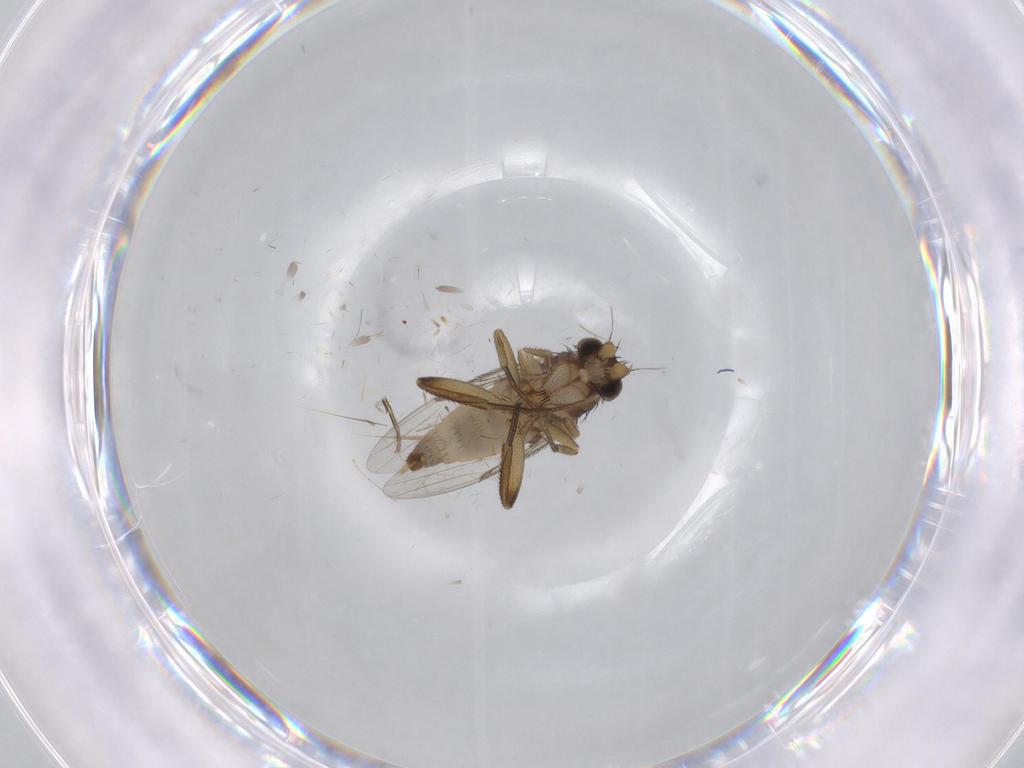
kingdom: Animalia
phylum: Arthropoda
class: Insecta
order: Diptera
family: Phoridae
